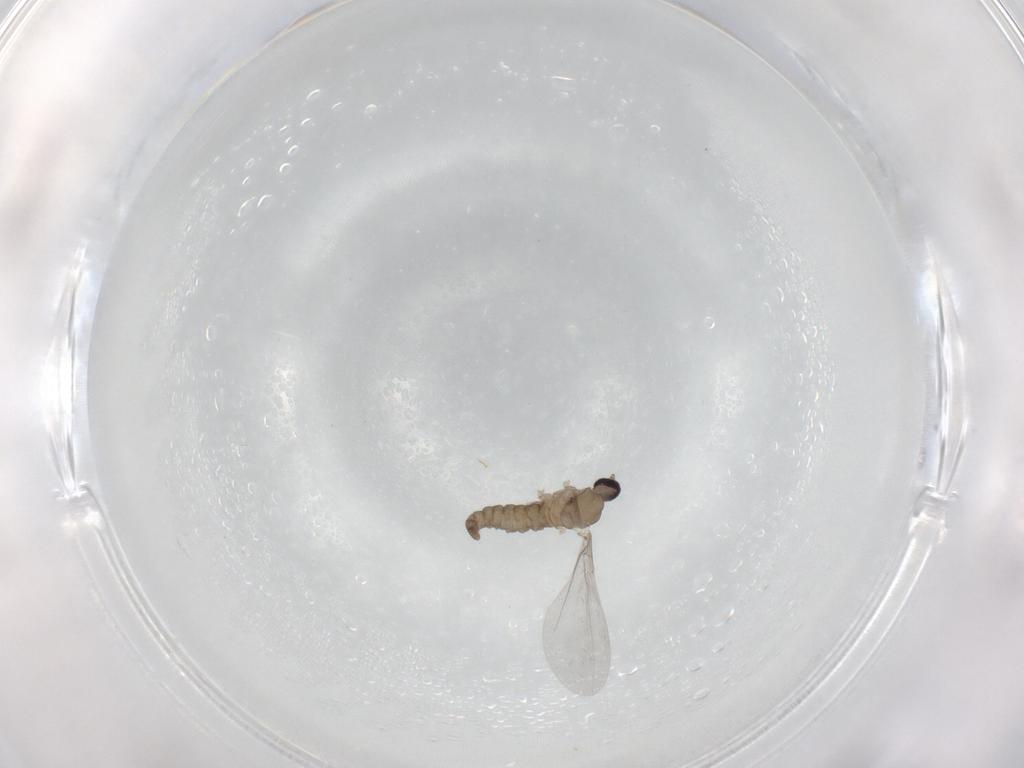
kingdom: Animalia
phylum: Arthropoda
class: Insecta
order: Diptera
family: Cecidomyiidae
